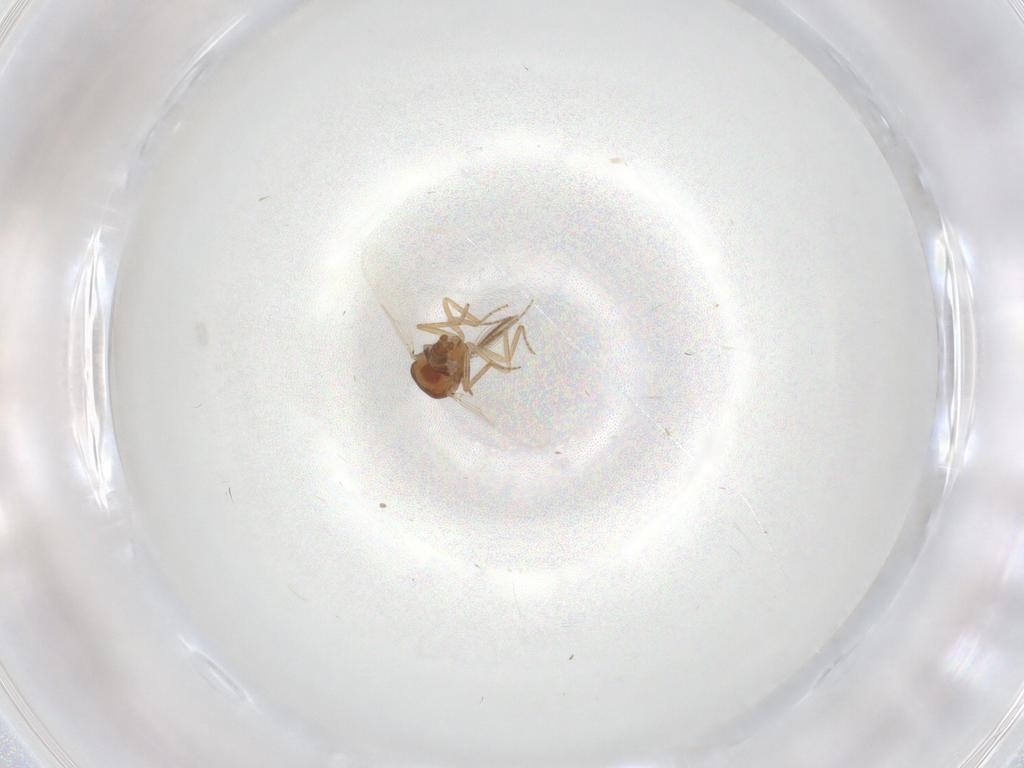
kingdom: Animalia
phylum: Arthropoda
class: Insecta
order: Diptera
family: Ceratopogonidae
